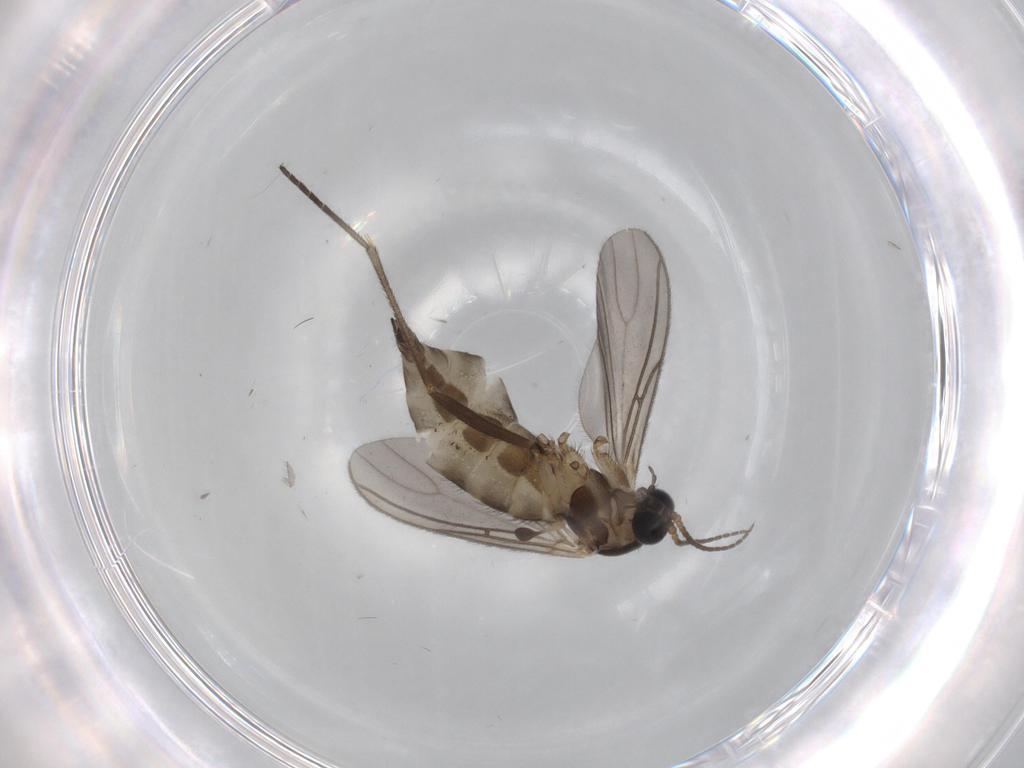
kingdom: Animalia
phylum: Arthropoda
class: Insecta
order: Diptera
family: Sciaridae
